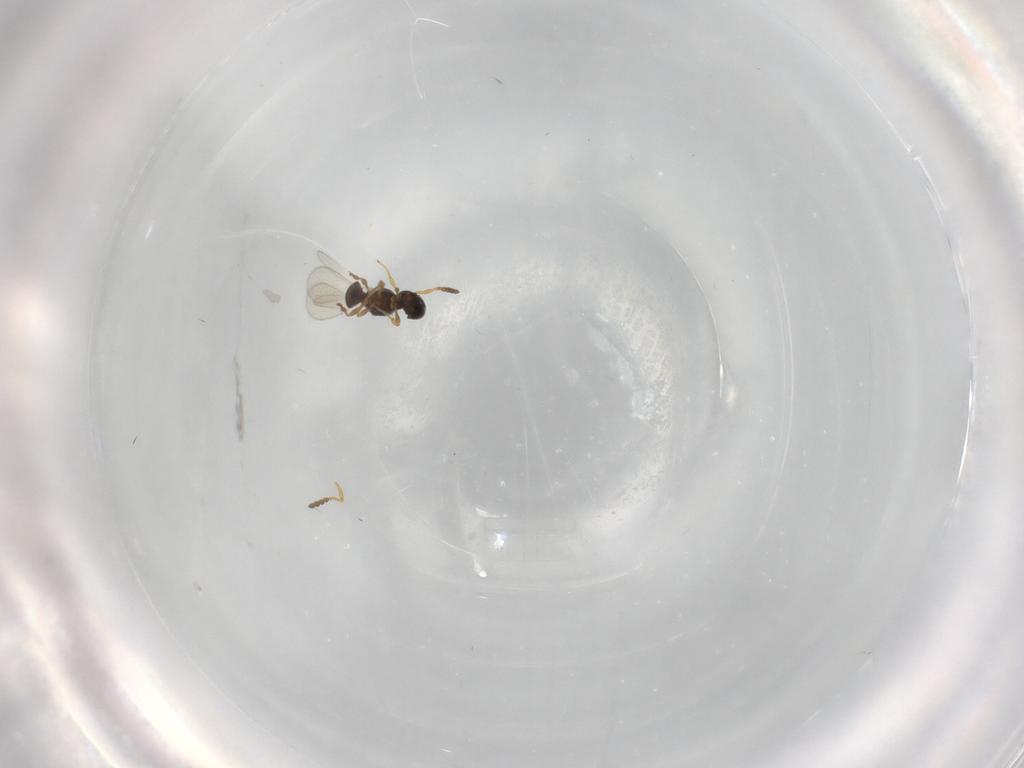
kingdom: Animalia
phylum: Arthropoda
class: Insecta
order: Hymenoptera
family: Platygastridae
